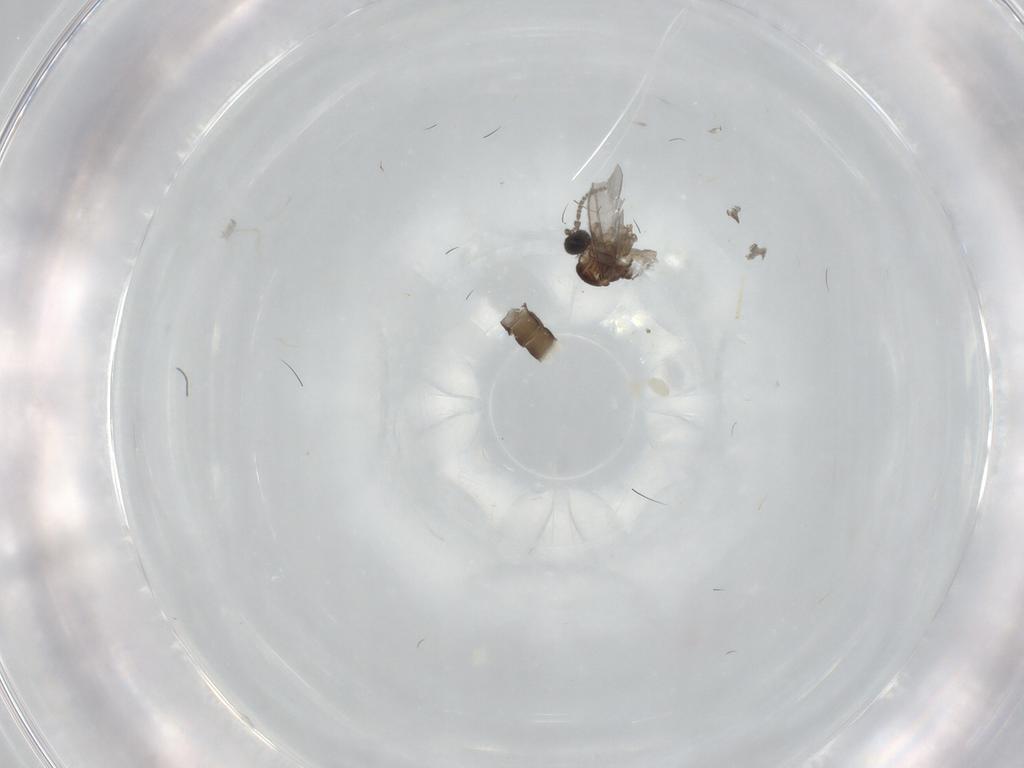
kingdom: Animalia
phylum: Arthropoda
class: Insecta
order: Diptera
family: Sciaridae
